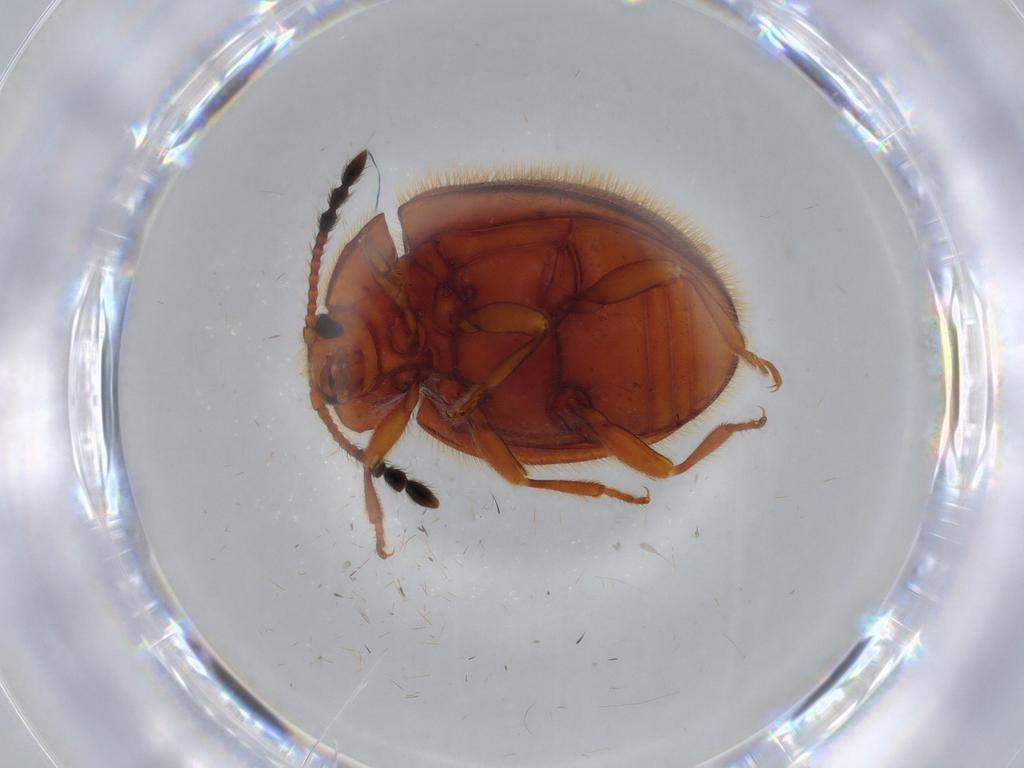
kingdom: Animalia
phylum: Arthropoda
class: Insecta
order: Coleoptera
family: Endomychidae
